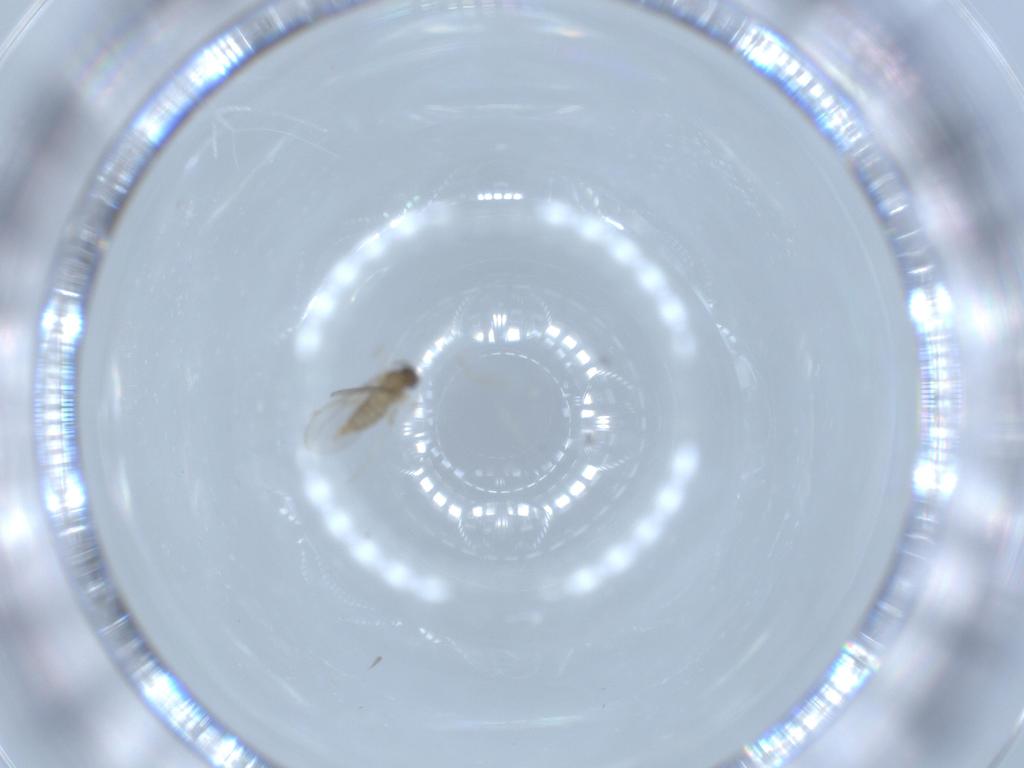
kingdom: Animalia
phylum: Arthropoda
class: Insecta
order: Diptera
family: Cecidomyiidae
